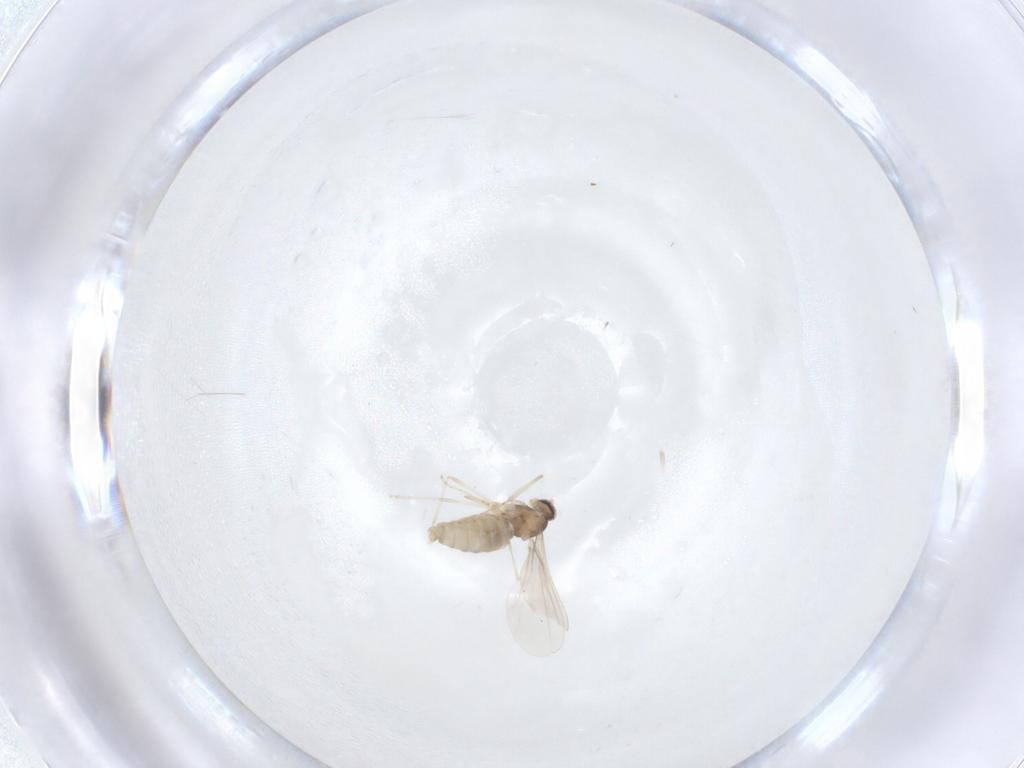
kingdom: Animalia
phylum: Arthropoda
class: Insecta
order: Diptera
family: Cecidomyiidae
